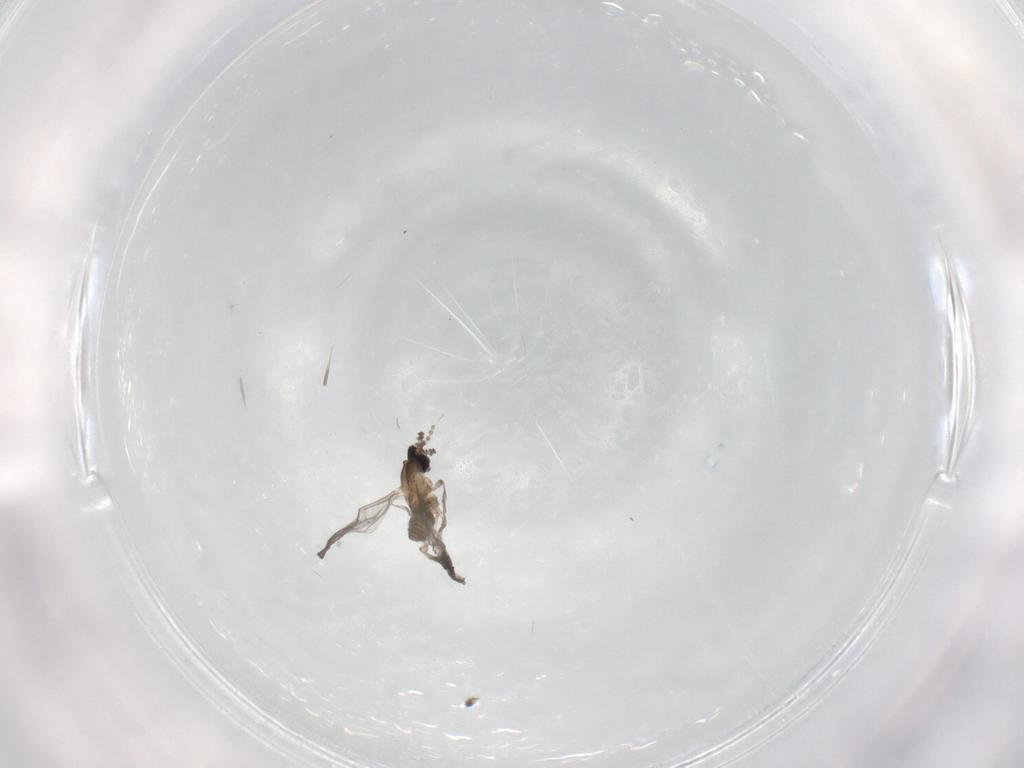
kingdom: Animalia
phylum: Arthropoda
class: Insecta
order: Diptera
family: Cecidomyiidae
